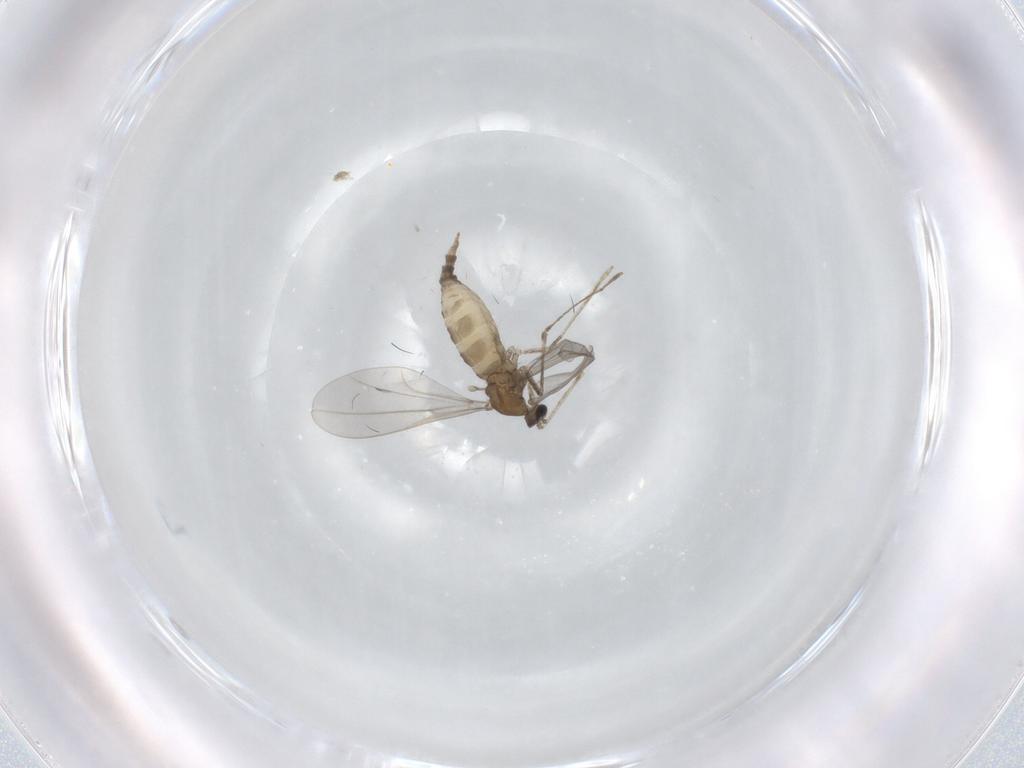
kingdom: Animalia
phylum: Arthropoda
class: Insecta
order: Diptera
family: Cecidomyiidae
